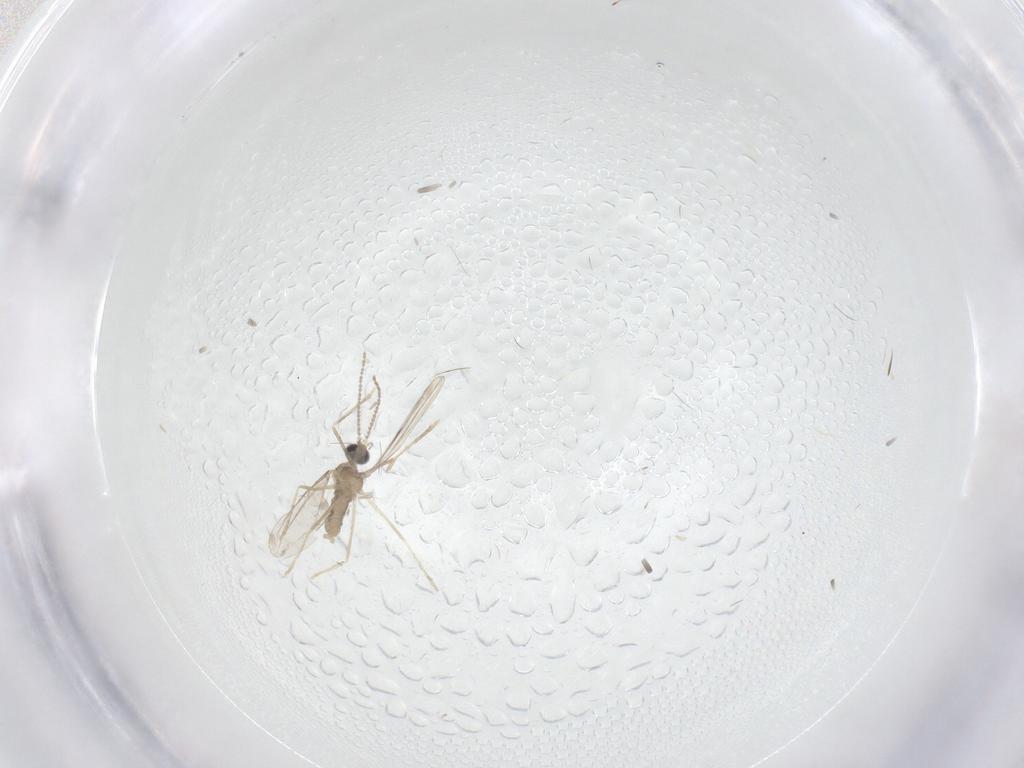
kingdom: Animalia
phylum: Arthropoda
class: Insecta
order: Diptera
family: Cecidomyiidae
